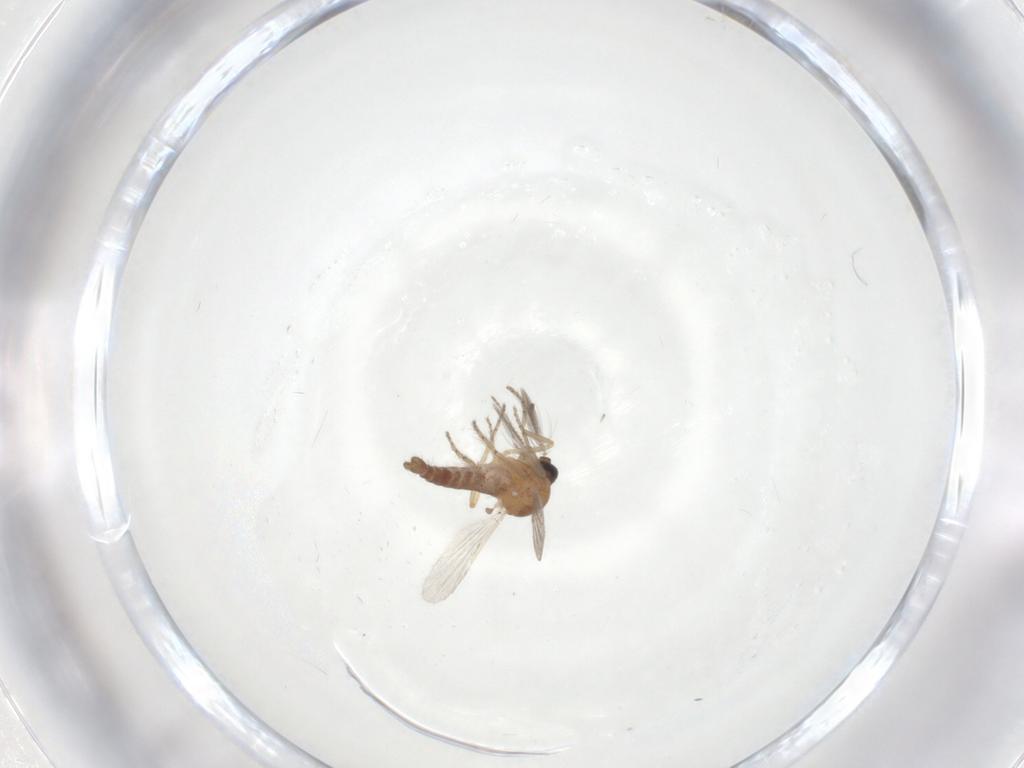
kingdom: Animalia
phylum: Arthropoda
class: Insecta
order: Diptera
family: Ceratopogonidae
